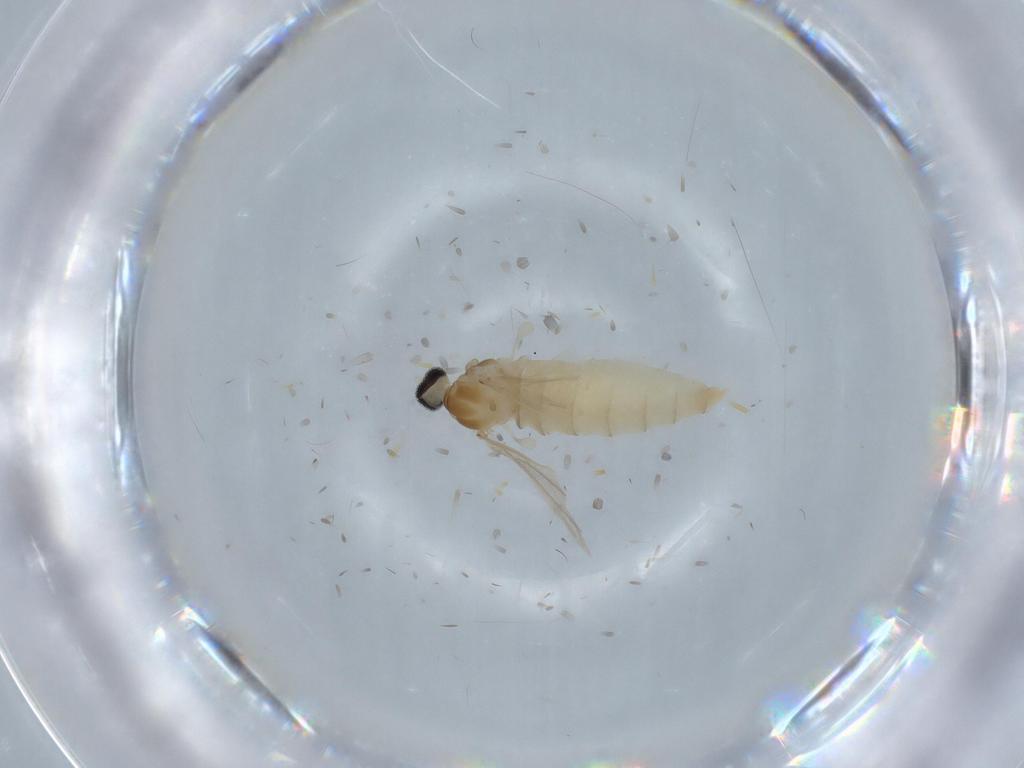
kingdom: Animalia
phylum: Arthropoda
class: Insecta
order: Diptera
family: Cecidomyiidae
